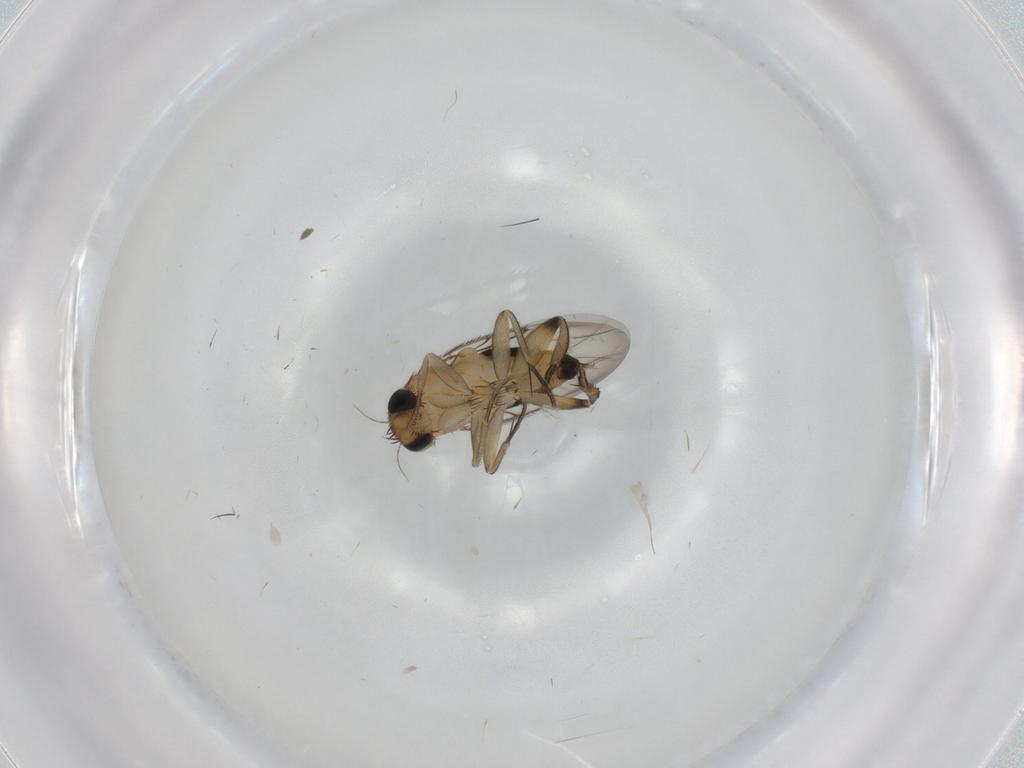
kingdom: Animalia
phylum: Arthropoda
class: Insecta
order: Diptera
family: Phoridae
